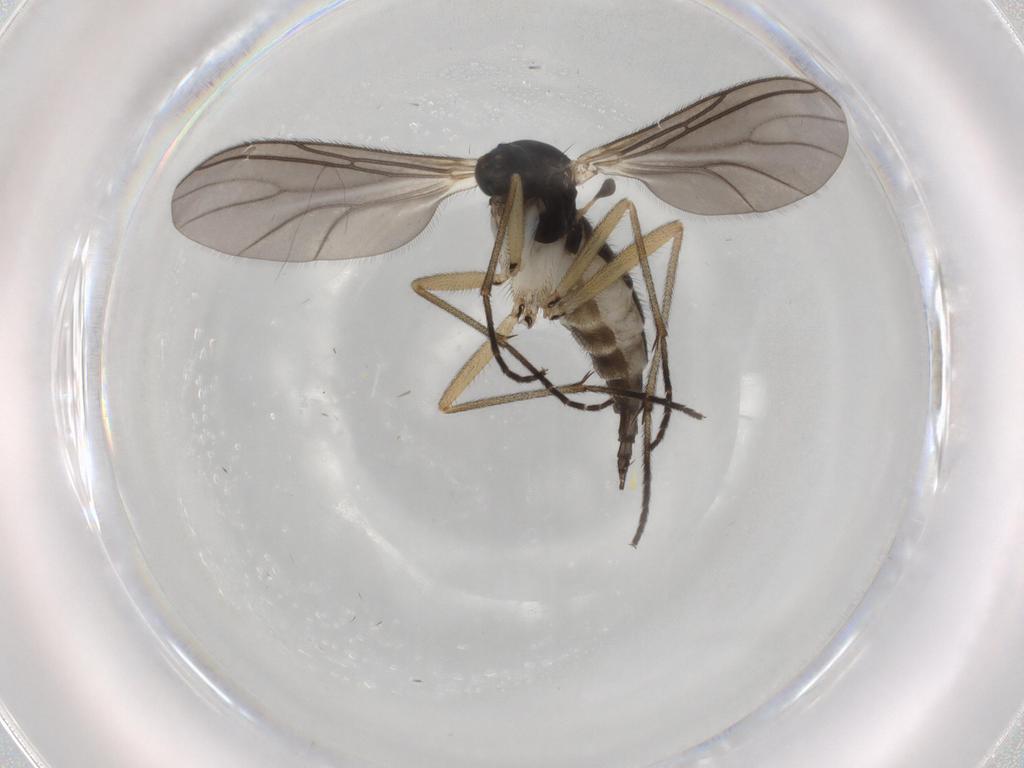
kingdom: Animalia
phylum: Arthropoda
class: Insecta
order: Diptera
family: Sciaridae
